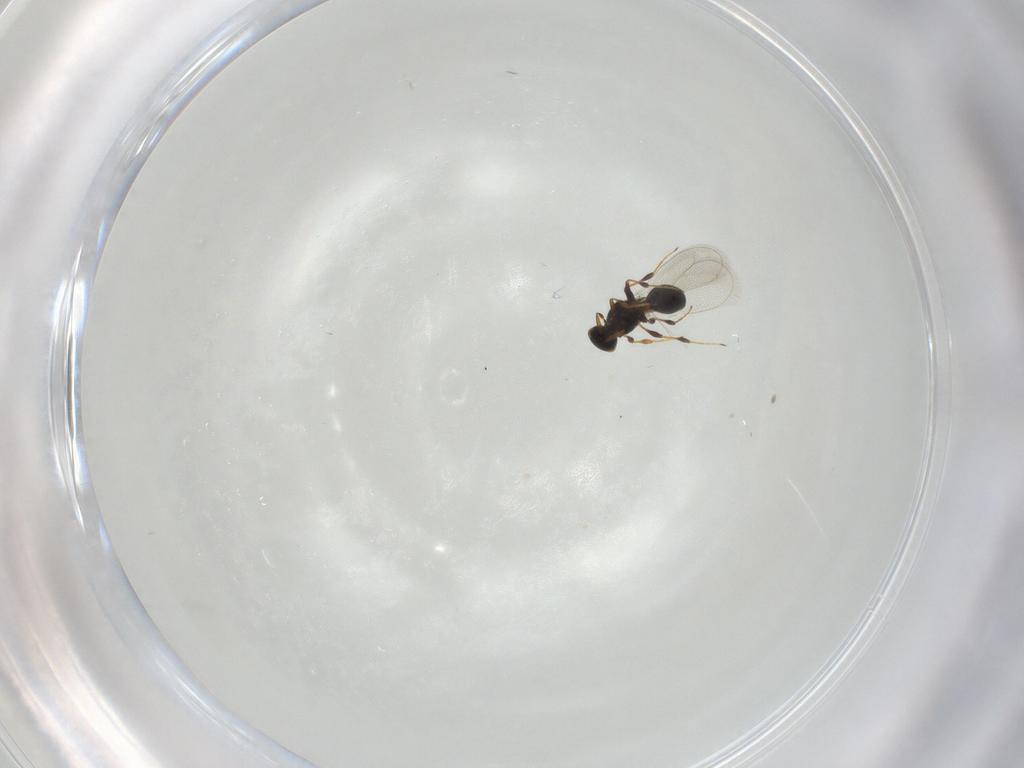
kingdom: Animalia
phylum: Arthropoda
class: Insecta
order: Hymenoptera
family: Platygastridae
